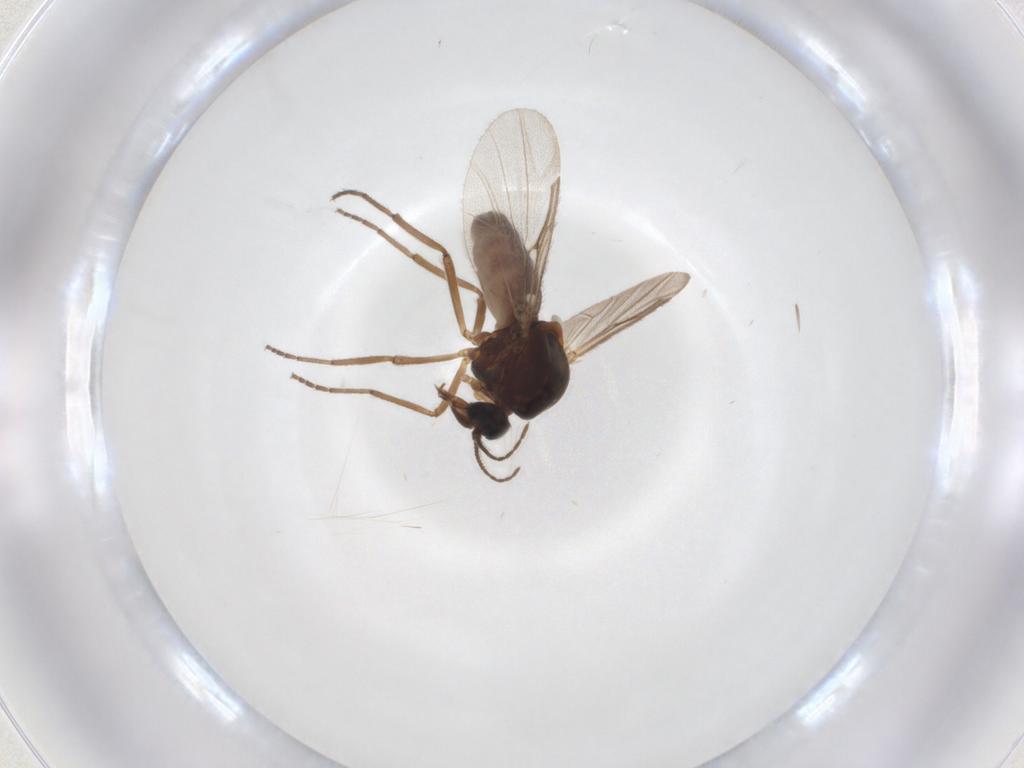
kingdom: Animalia
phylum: Arthropoda
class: Insecta
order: Diptera
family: Ceratopogonidae
